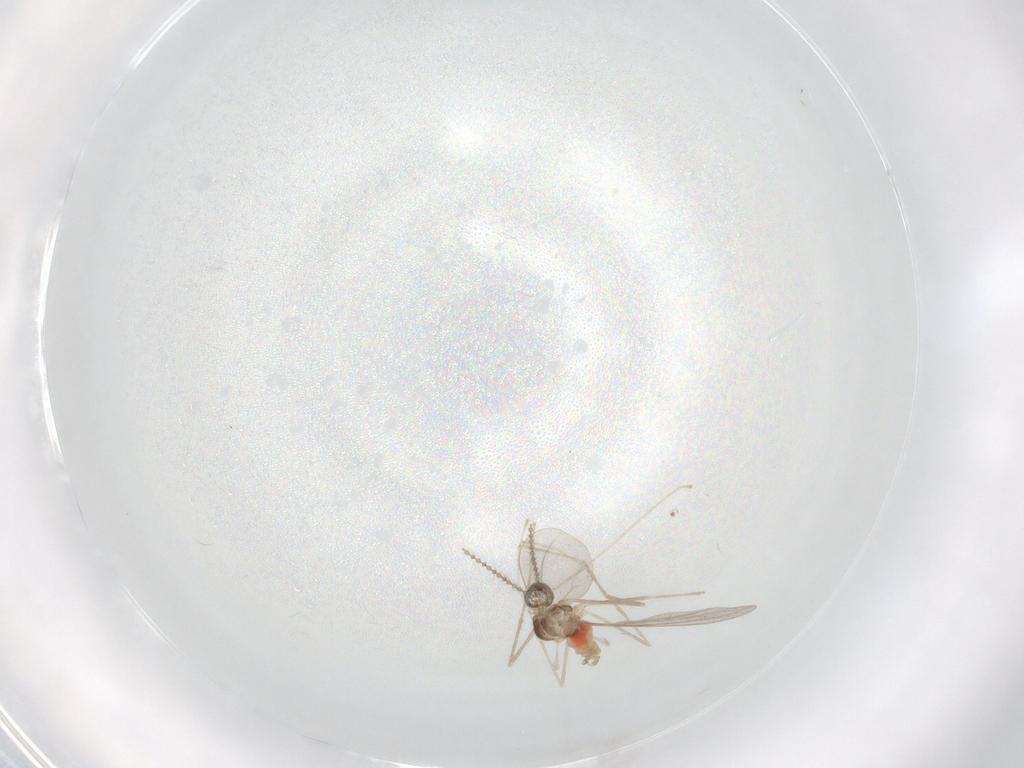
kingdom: Animalia
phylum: Arthropoda
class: Insecta
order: Diptera
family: Cecidomyiidae
